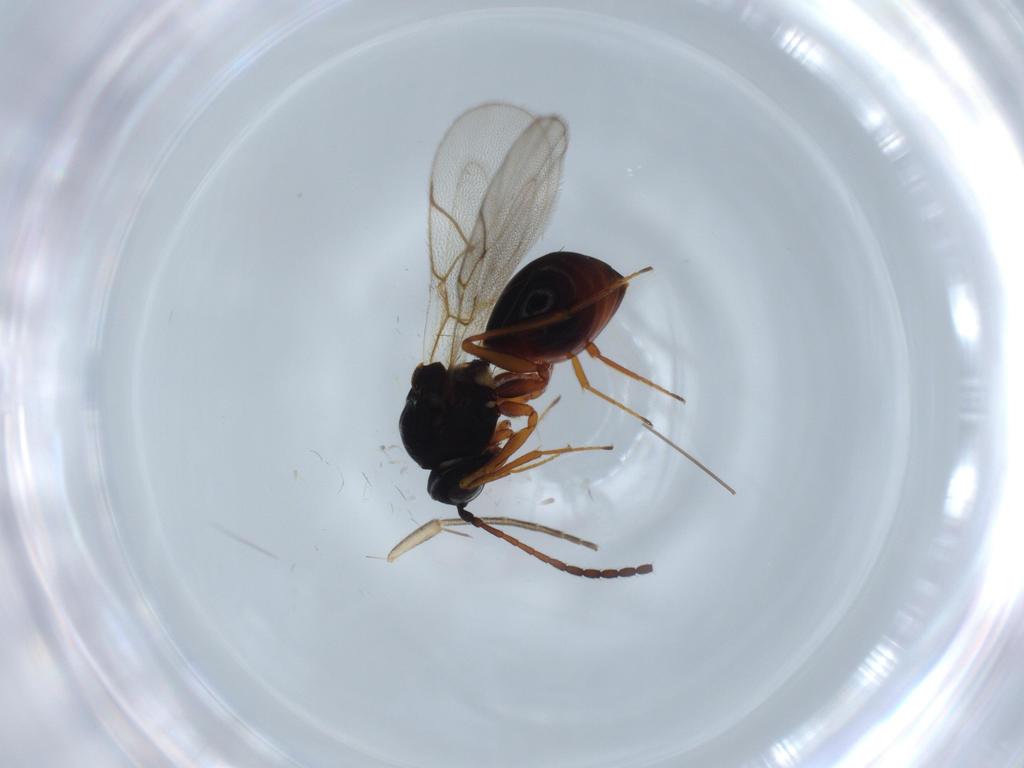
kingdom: Animalia
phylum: Arthropoda
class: Insecta
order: Hymenoptera
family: Figitidae
